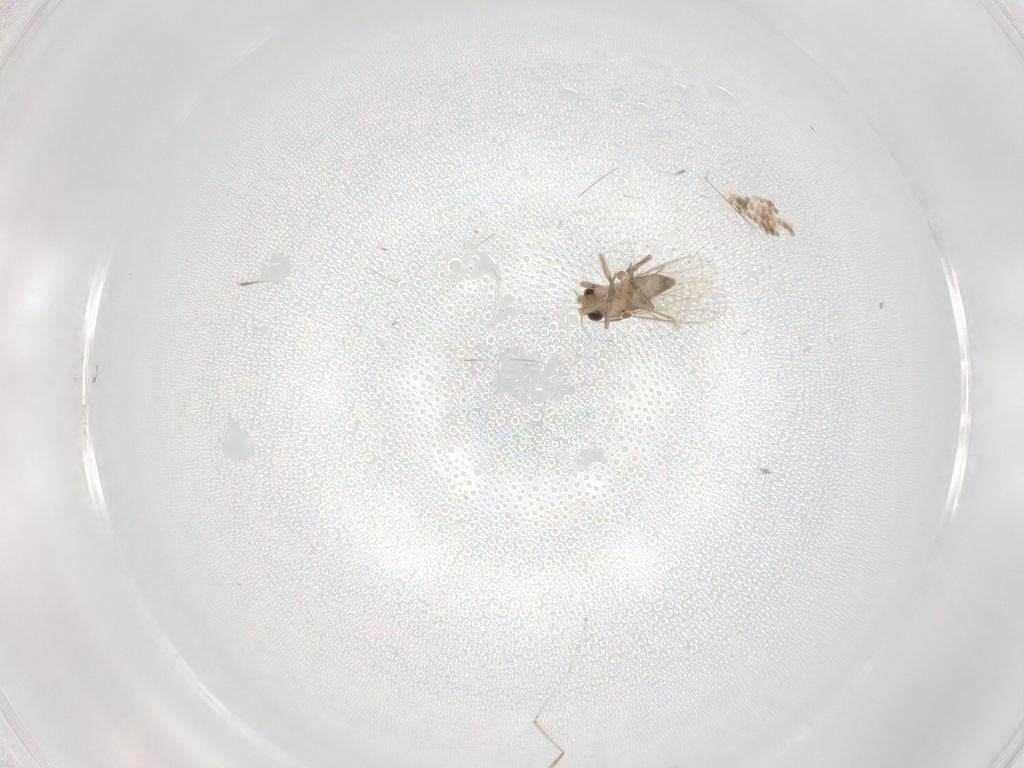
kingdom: Animalia
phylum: Arthropoda
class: Insecta
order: Diptera
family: Phoridae
